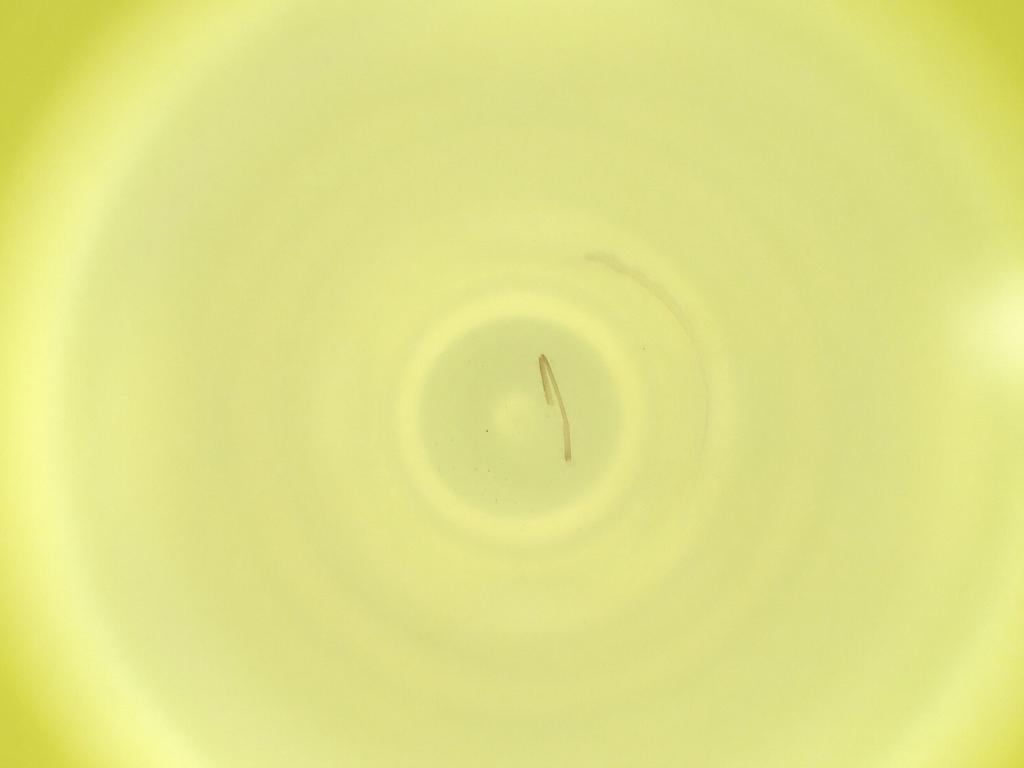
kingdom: Animalia
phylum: Arthropoda
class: Insecta
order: Diptera
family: Cecidomyiidae
